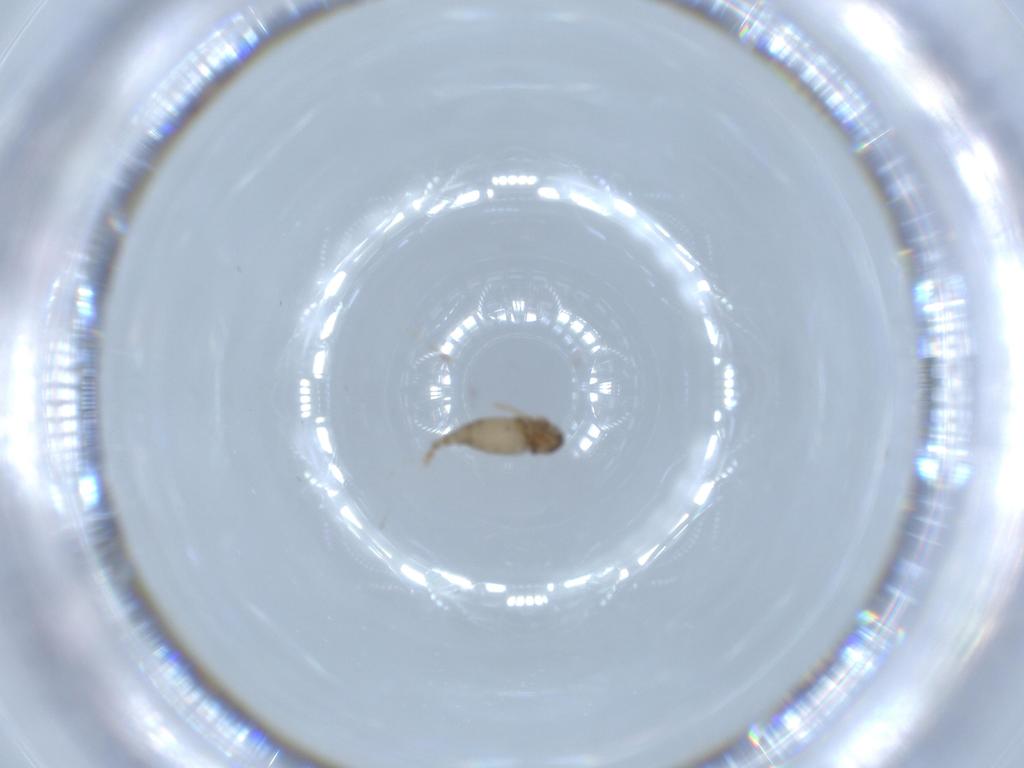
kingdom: Animalia
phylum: Arthropoda
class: Insecta
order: Diptera
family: Cecidomyiidae
